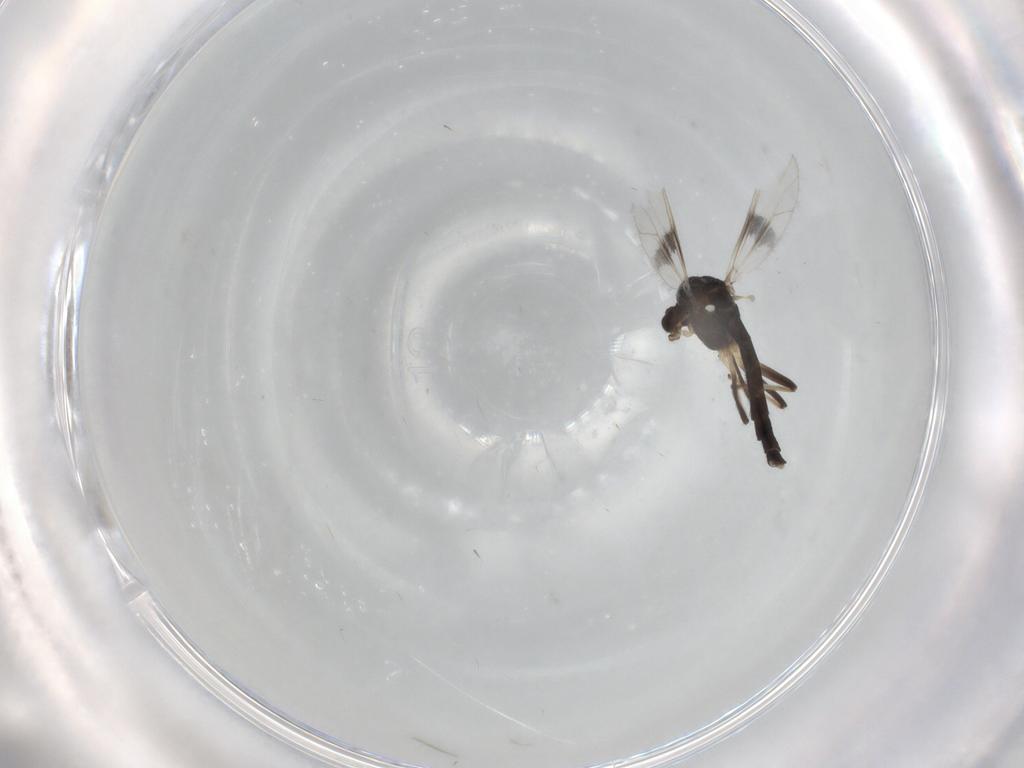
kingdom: Animalia
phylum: Arthropoda
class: Insecta
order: Diptera
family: Chironomidae
